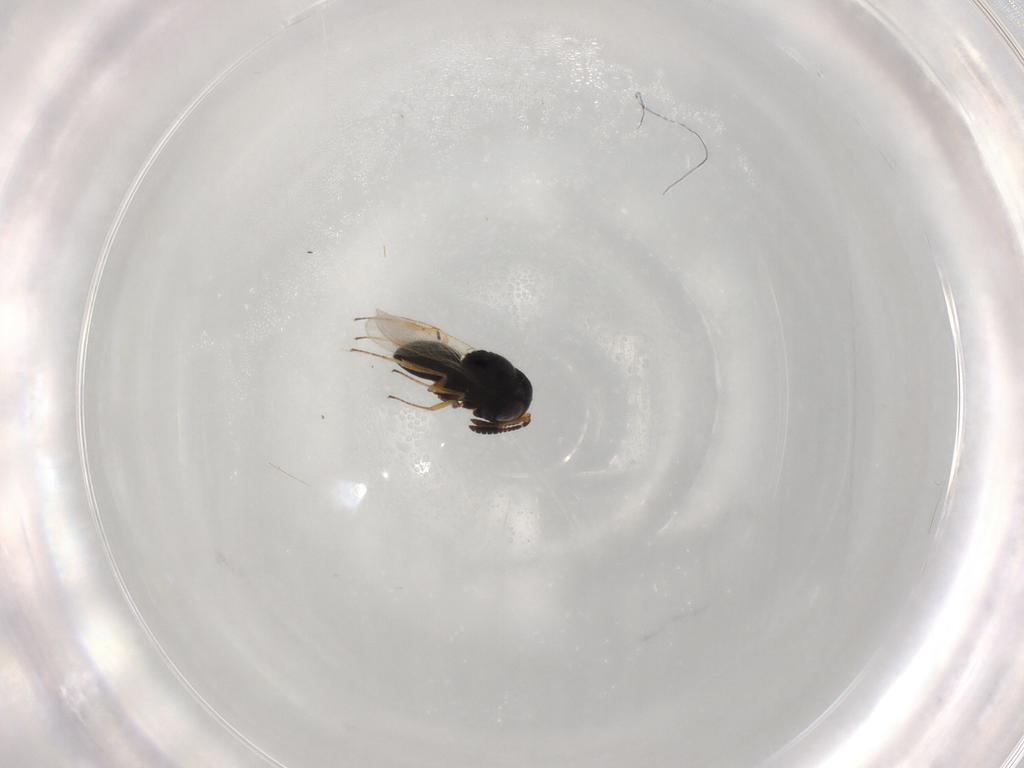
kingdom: Animalia
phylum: Arthropoda
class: Insecta
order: Hymenoptera
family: Scelionidae
